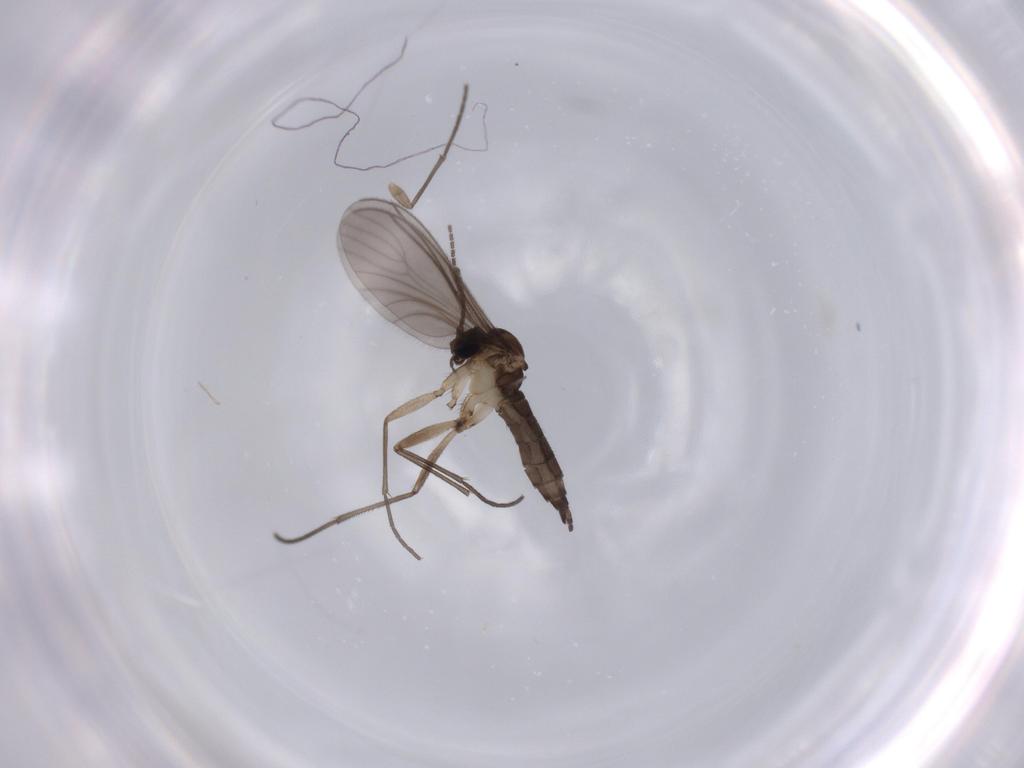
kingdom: Animalia
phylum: Arthropoda
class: Insecta
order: Diptera
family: Sciaridae
